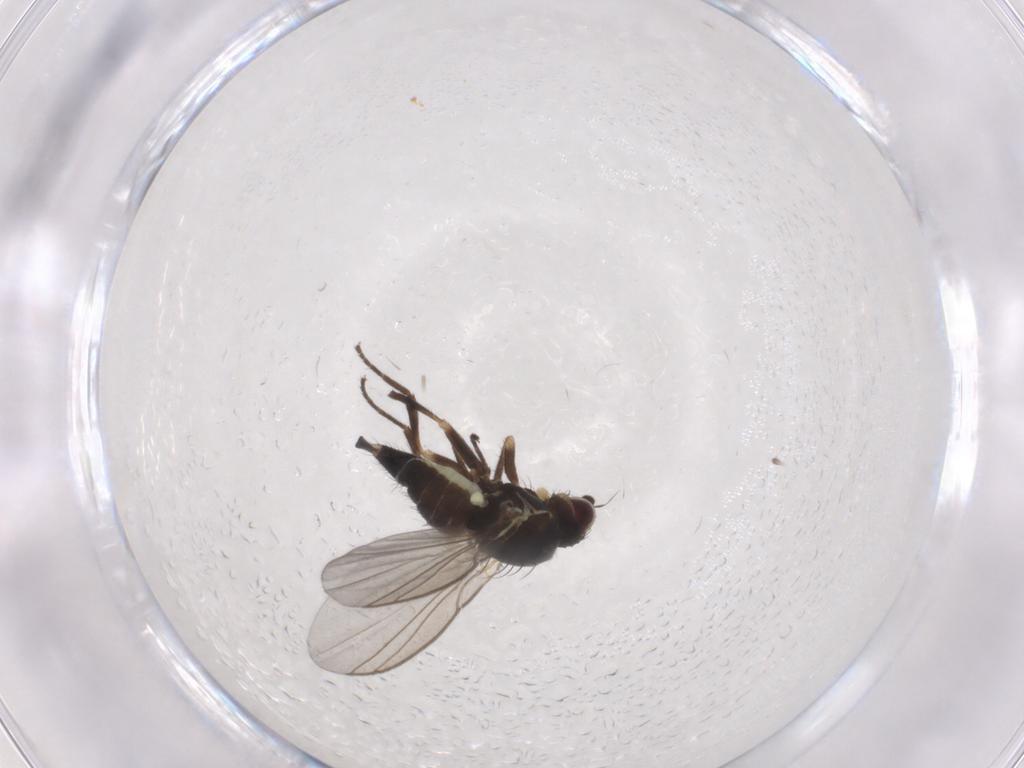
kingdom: Animalia
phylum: Arthropoda
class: Insecta
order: Diptera
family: Agromyzidae
